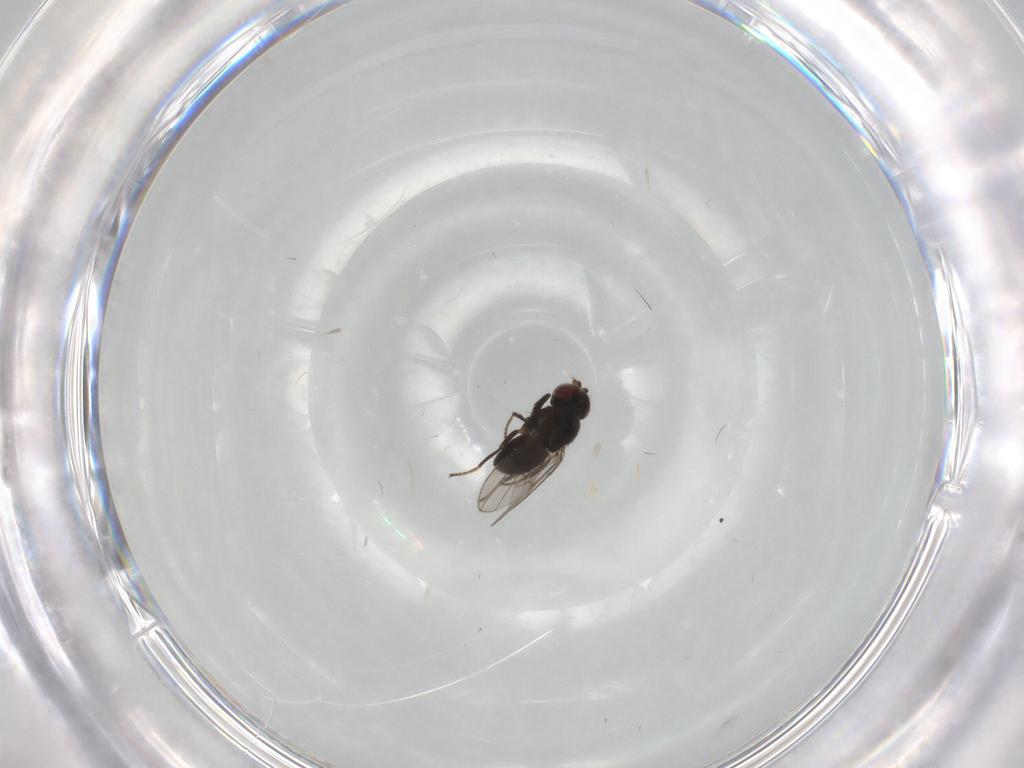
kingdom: Animalia
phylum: Arthropoda
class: Insecta
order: Diptera
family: Ephydridae
